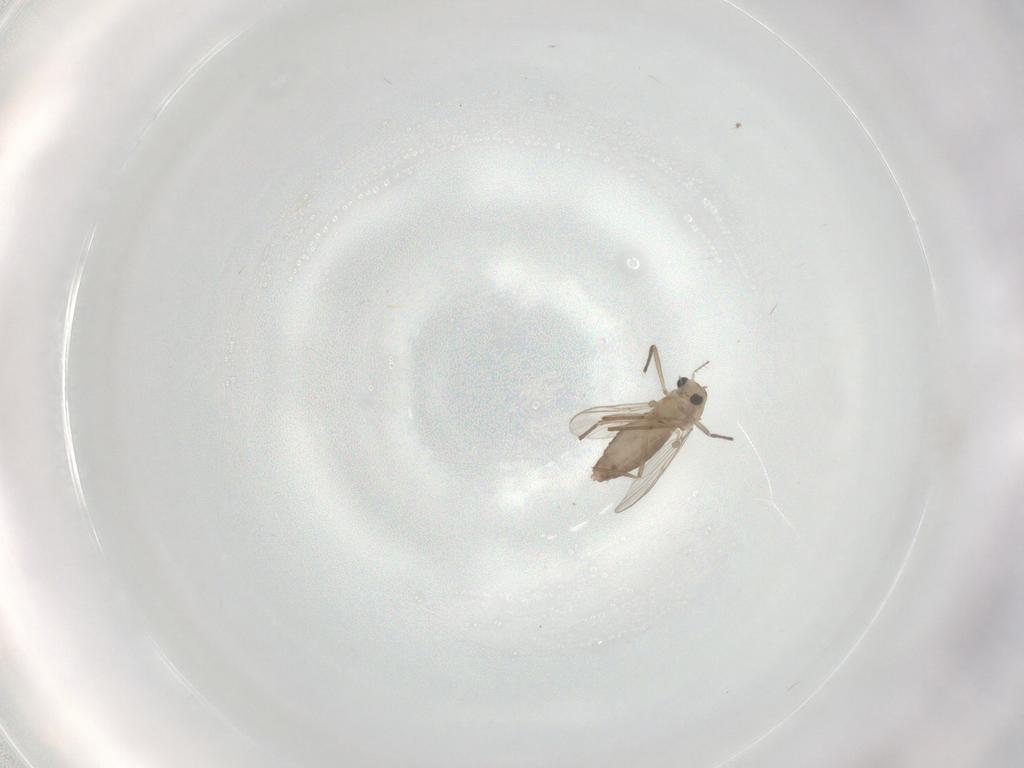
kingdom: Animalia
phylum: Arthropoda
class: Insecta
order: Diptera
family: Chironomidae
